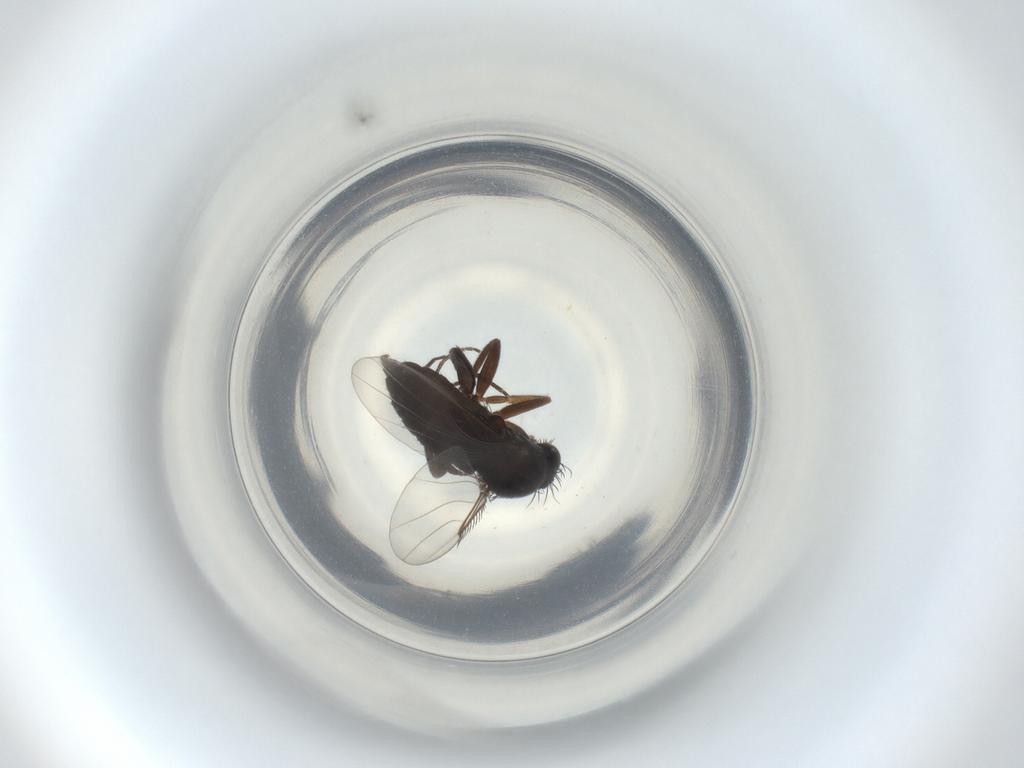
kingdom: Animalia
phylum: Arthropoda
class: Insecta
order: Diptera
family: Phoridae
